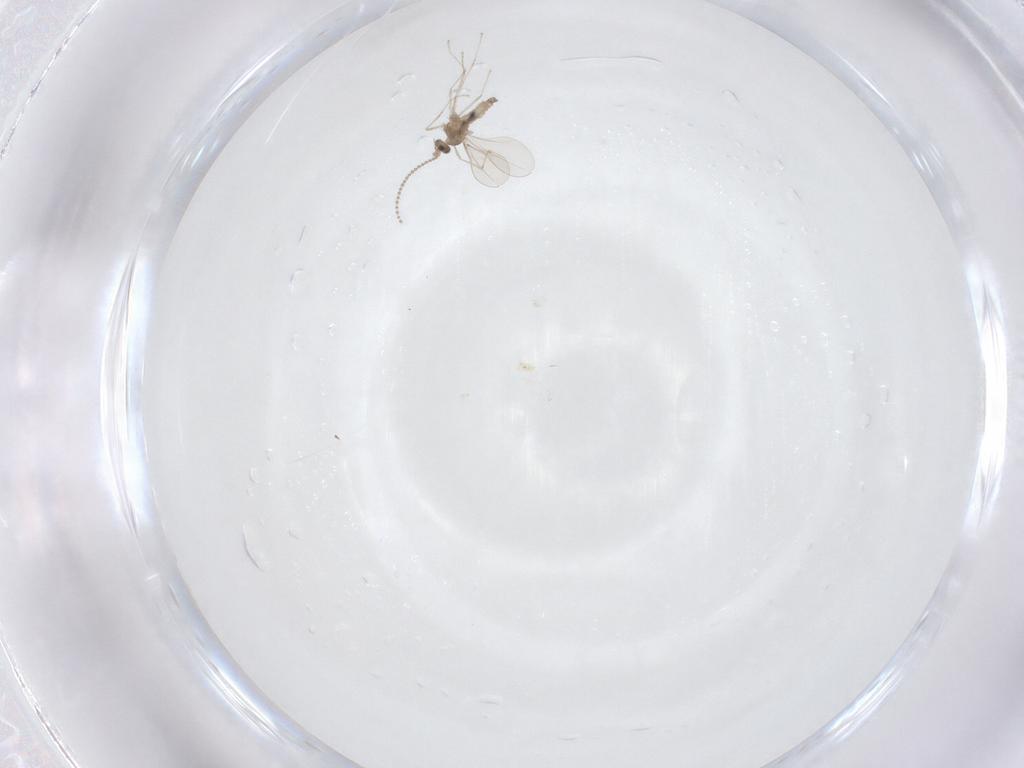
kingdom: Animalia
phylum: Arthropoda
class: Insecta
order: Diptera
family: Cecidomyiidae
